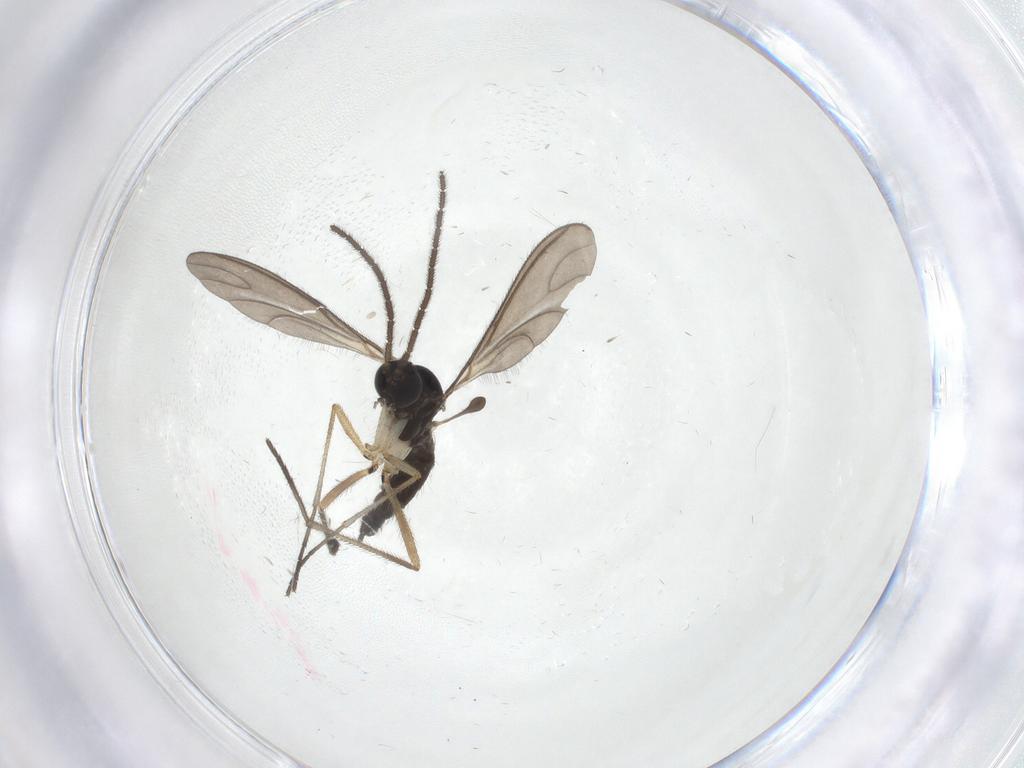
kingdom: Animalia
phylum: Arthropoda
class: Insecta
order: Diptera
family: Sciaridae
